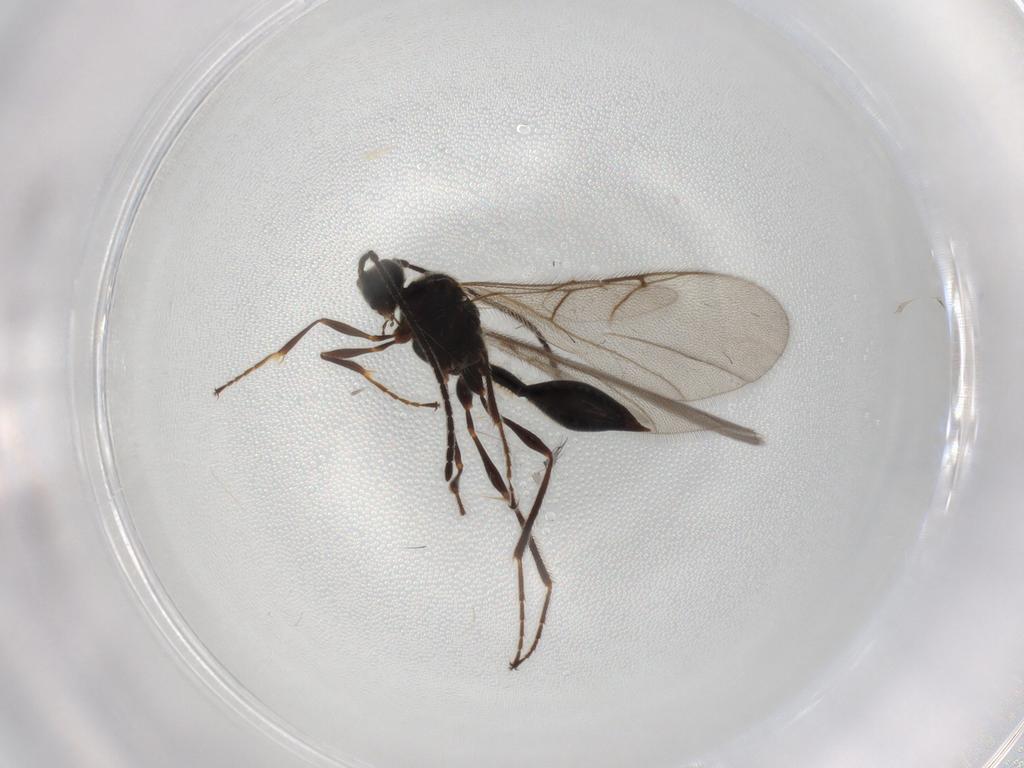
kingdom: Animalia
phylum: Arthropoda
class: Insecta
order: Hymenoptera
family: Diapriidae
